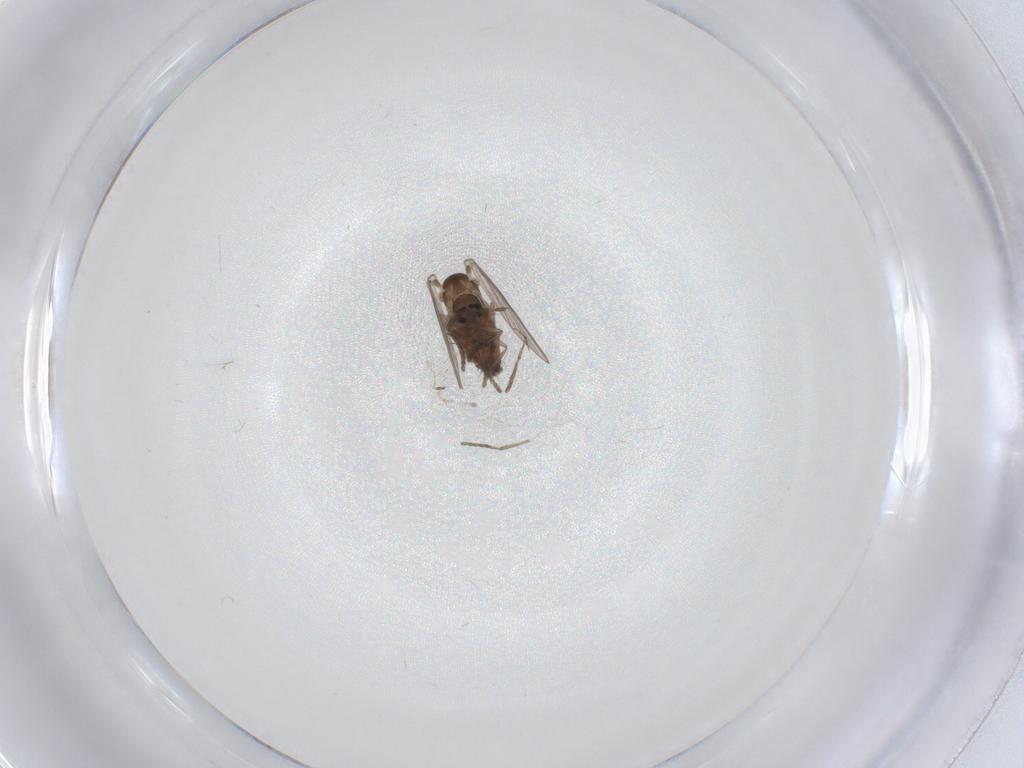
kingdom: Animalia
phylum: Arthropoda
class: Insecta
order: Diptera
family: Psychodidae
